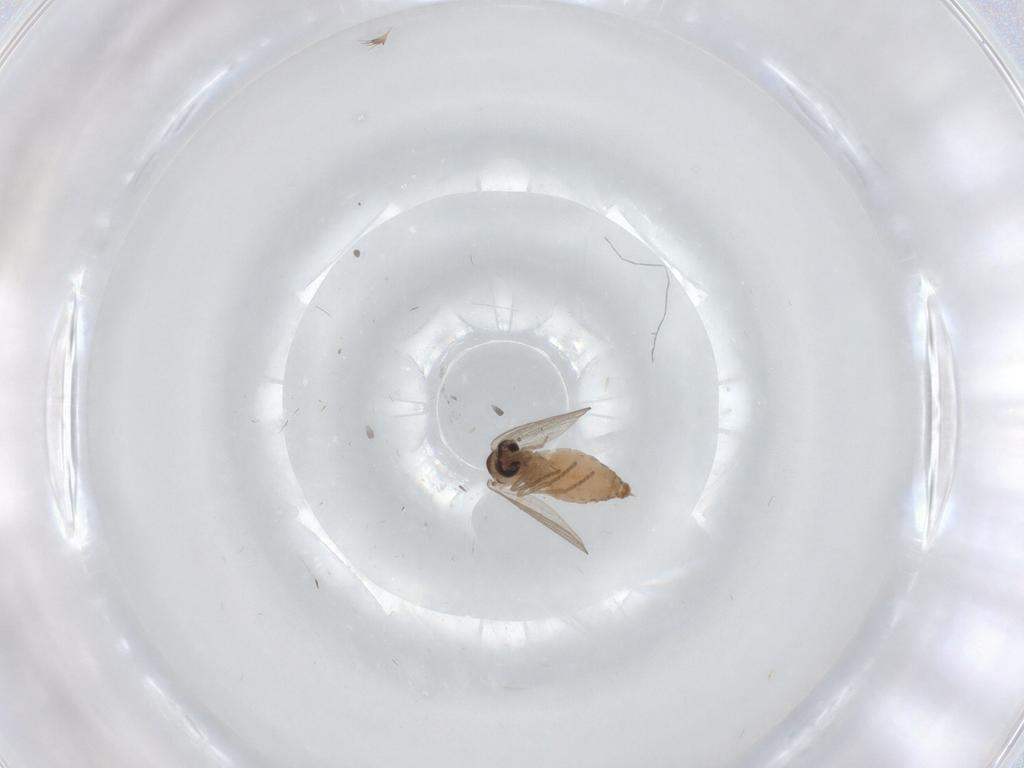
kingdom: Animalia
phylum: Arthropoda
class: Insecta
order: Diptera
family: Psychodidae
